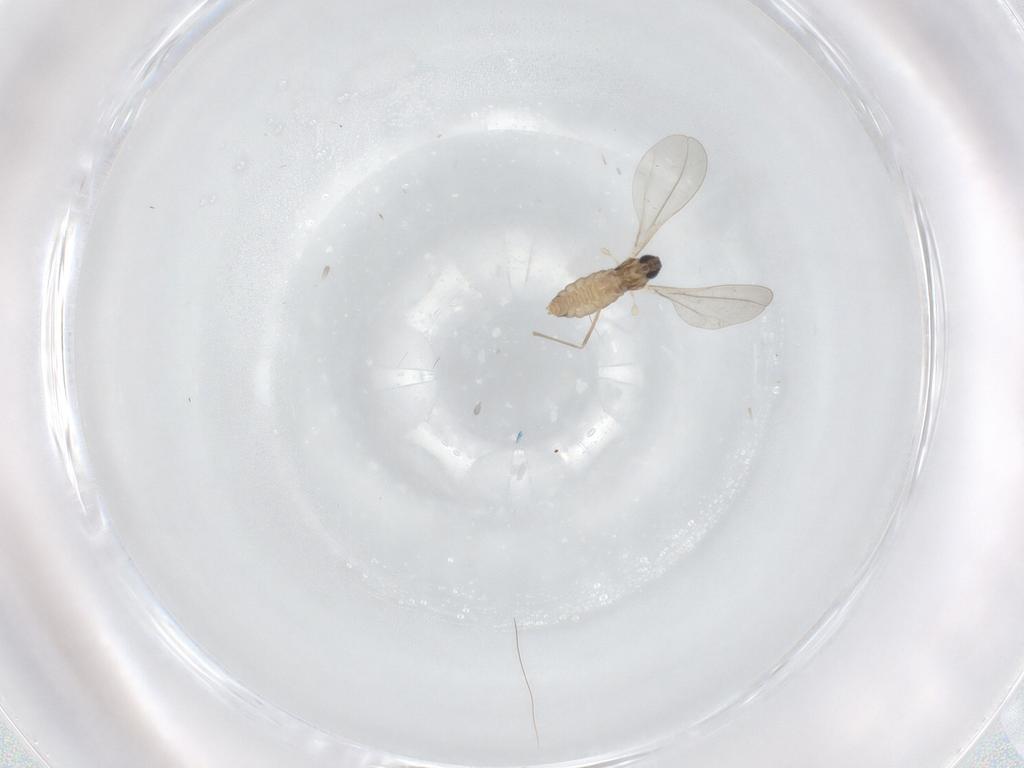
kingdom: Animalia
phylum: Arthropoda
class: Insecta
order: Diptera
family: Cecidomyiidae
